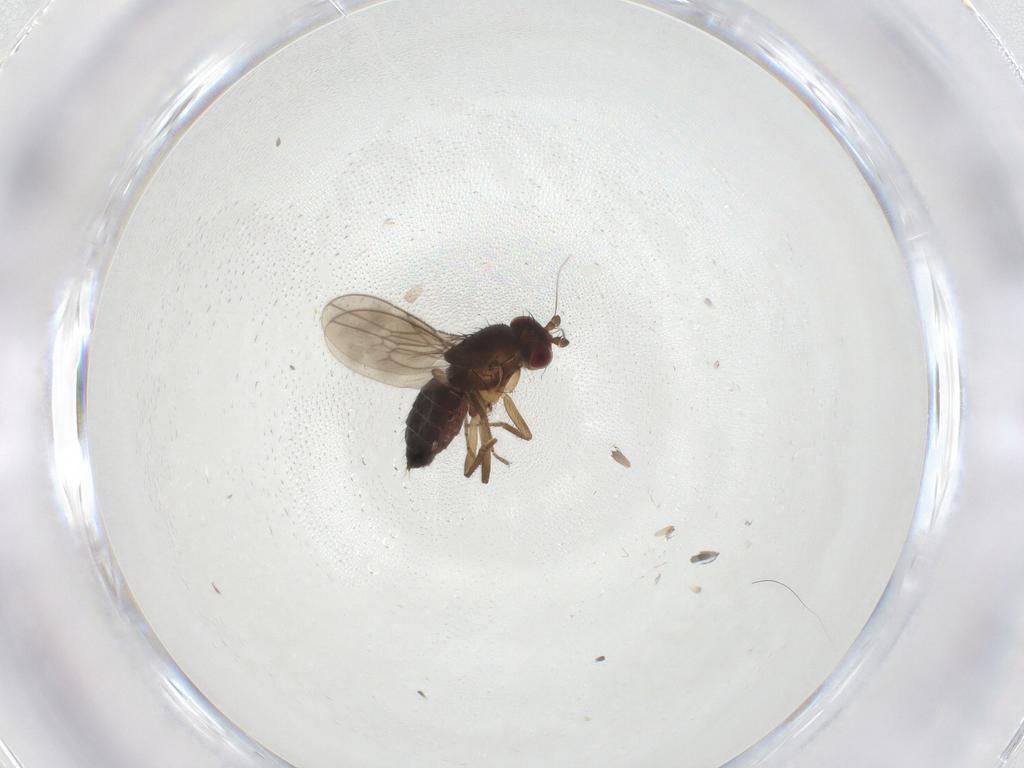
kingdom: Animalia
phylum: Arthropoda
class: Insecta
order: Diptera
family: Sphaeroceridae
